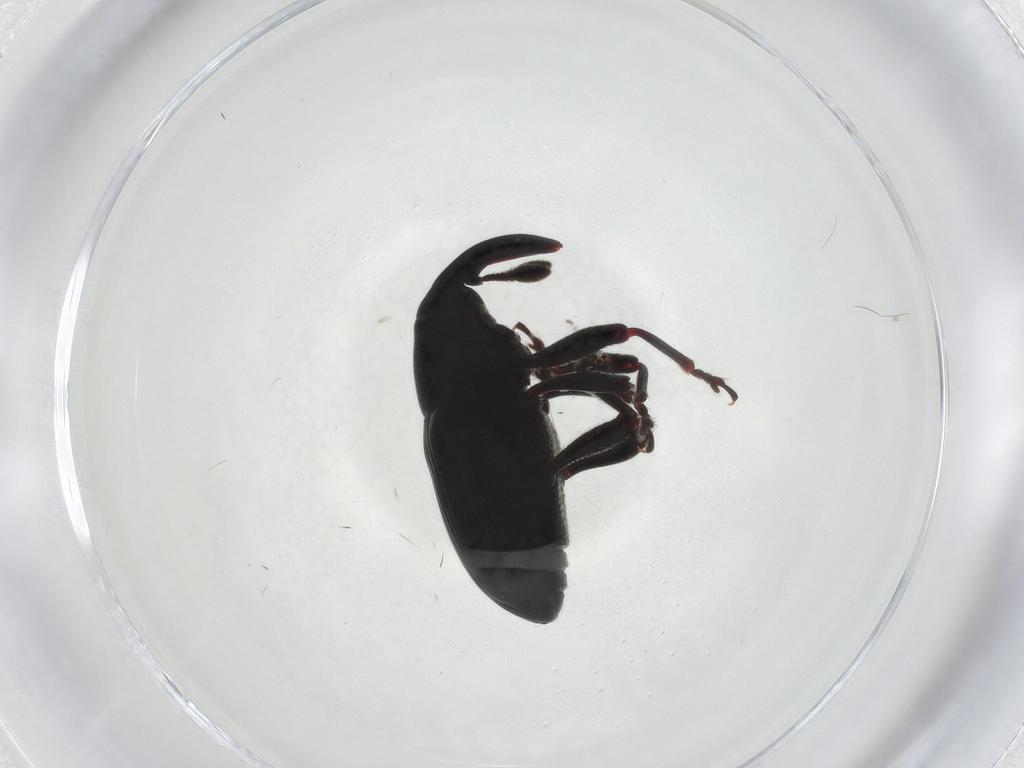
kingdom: Animalia
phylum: Arthropoda
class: Insecta
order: Coleoptera
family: Curculionidae
